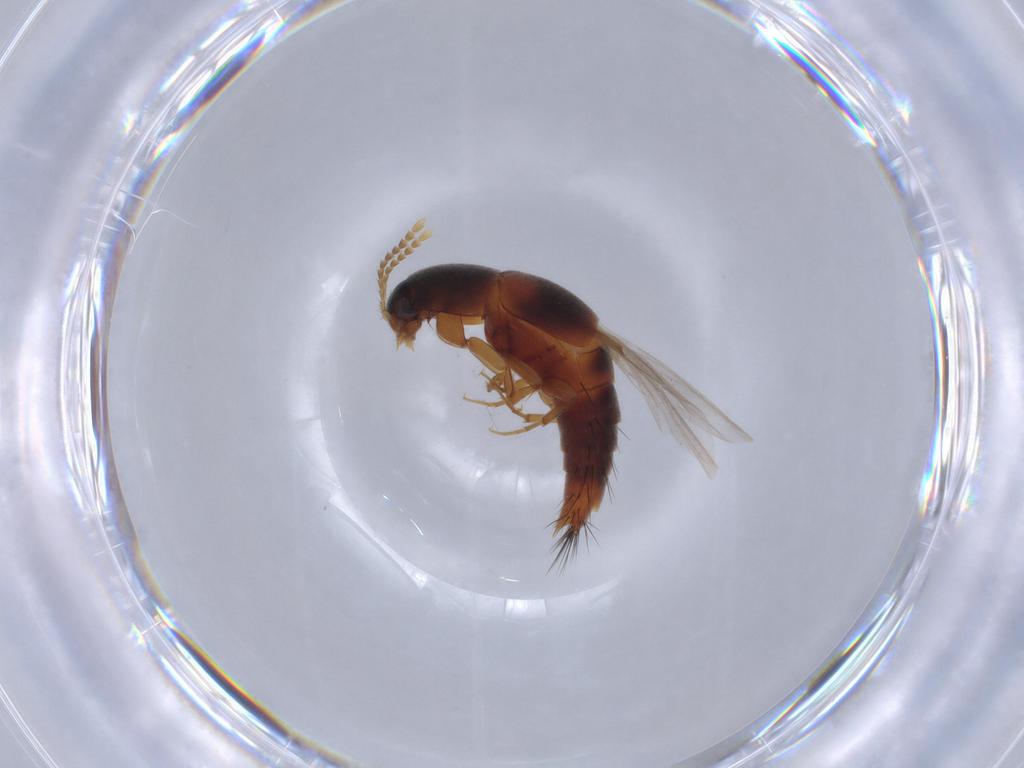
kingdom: Animalia
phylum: Arthropoda
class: Insecta
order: Coleoptera
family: Staphylinidae
